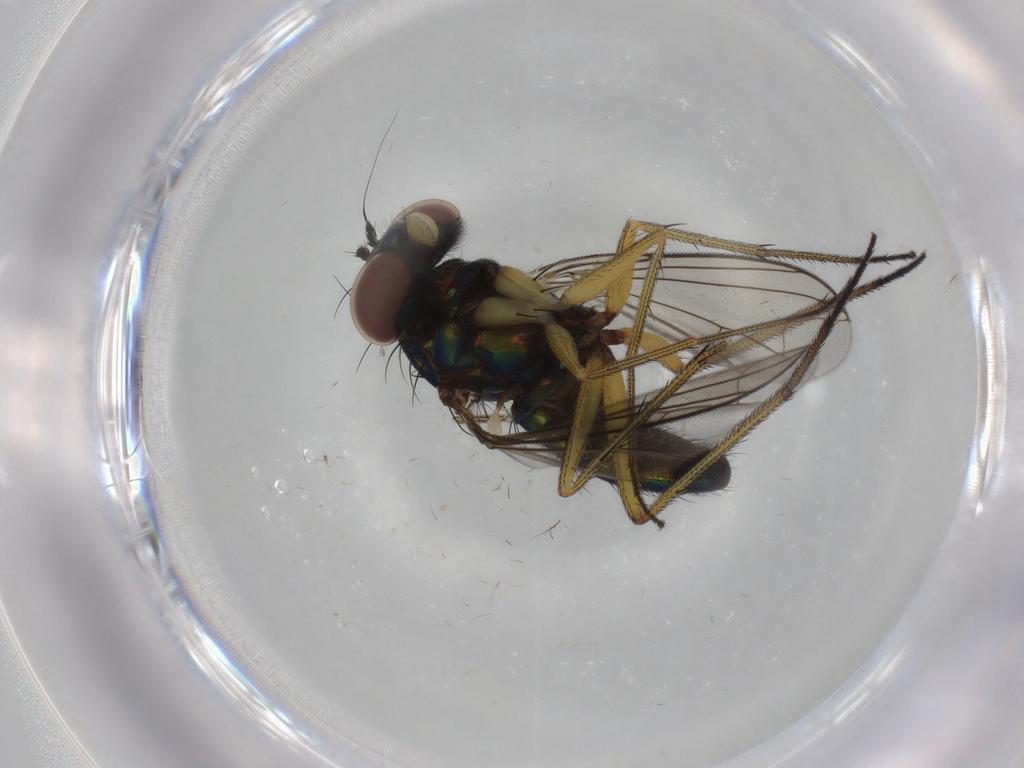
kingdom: Animalia
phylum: Arthropoda
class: Insecta
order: Diptera
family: Dolichopodidae
